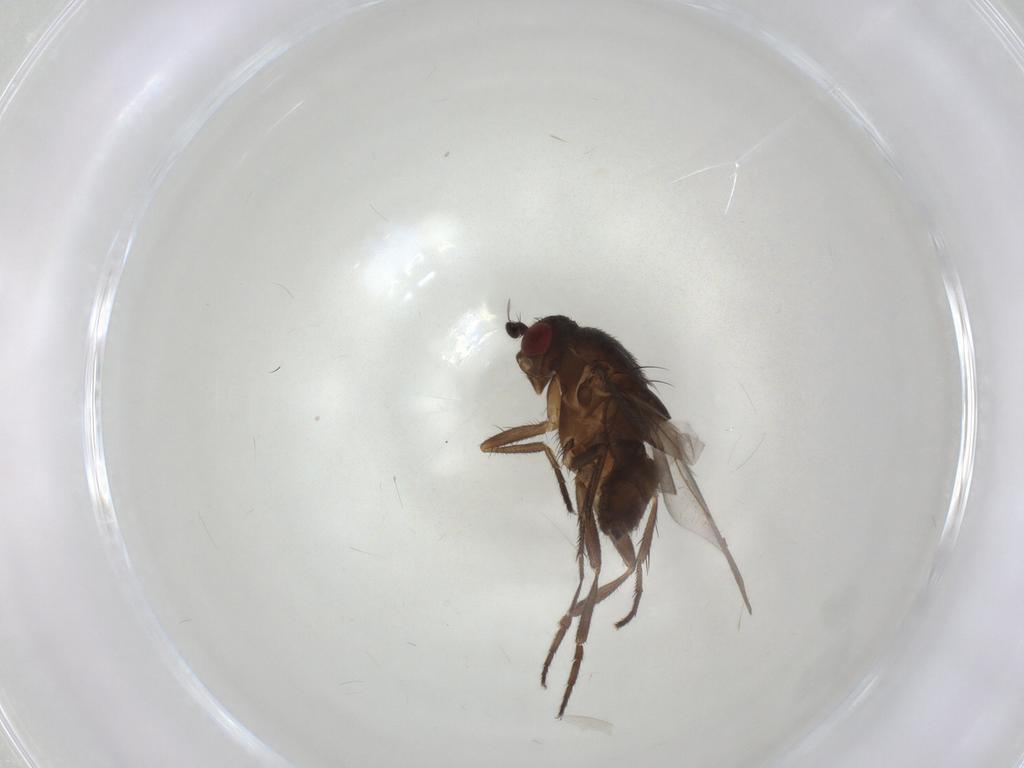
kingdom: Animalia
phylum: Arthropoda
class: Insecta
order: Diptera
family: Sphaeroceridae
